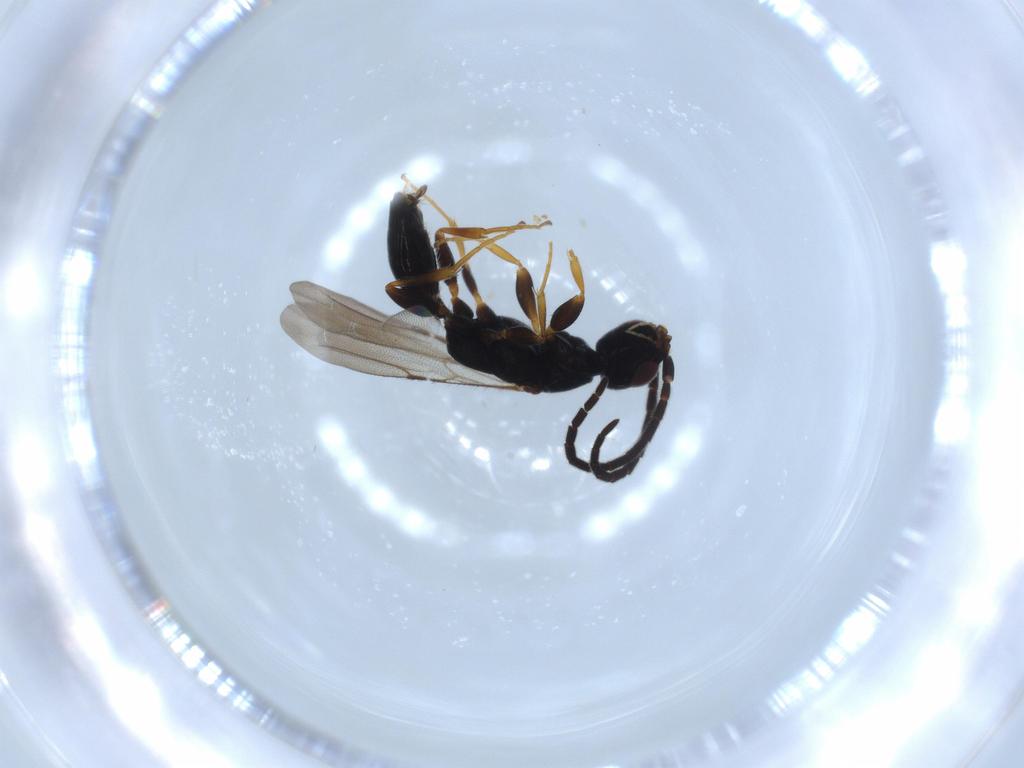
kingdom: Animalia
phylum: Arthropoda
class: Insecta
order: Hymenoptera
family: Bethylidae
